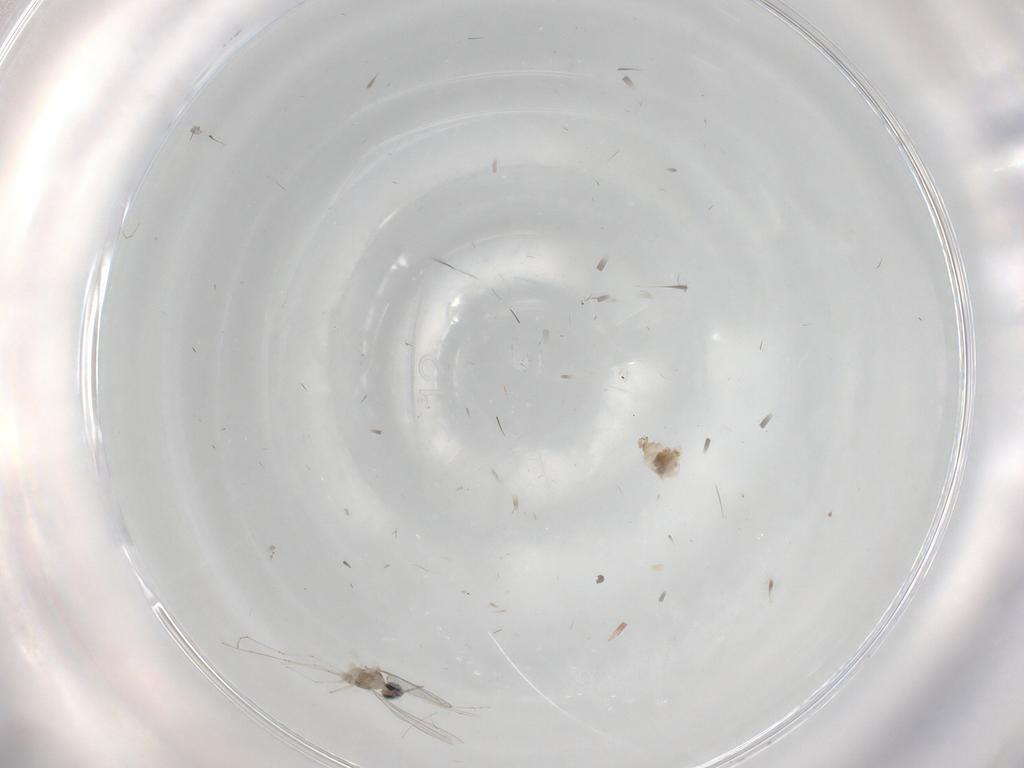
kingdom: Animalia
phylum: Arthropoda
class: Insecta
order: Diptera
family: Cecidomyiidae
